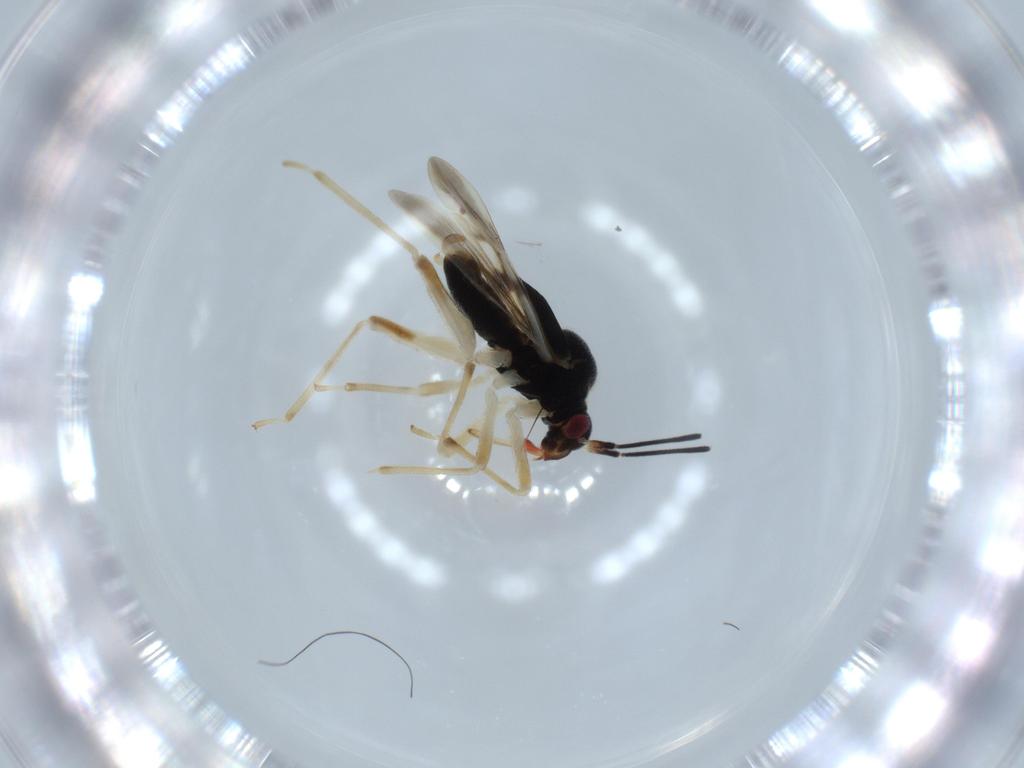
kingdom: Animalia
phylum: Arthropoda
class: Insecta
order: Hemiptera
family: Miridae
